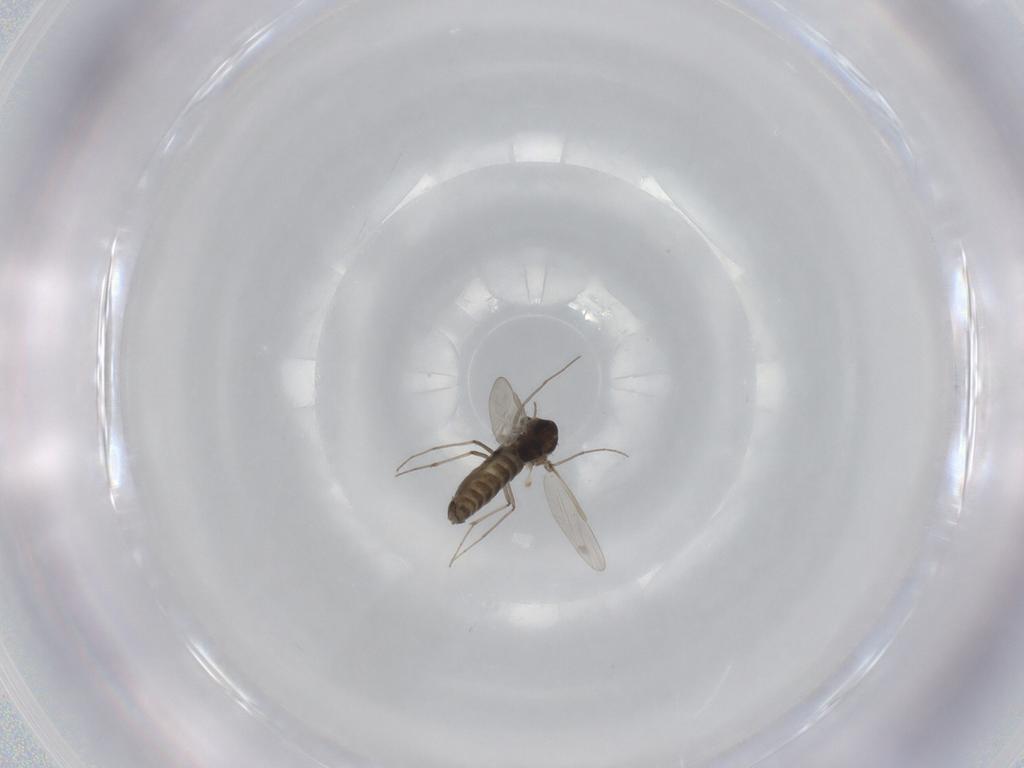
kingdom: Animalia
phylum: Arthropoda
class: Insecta
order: Diptera
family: Chironomidae
